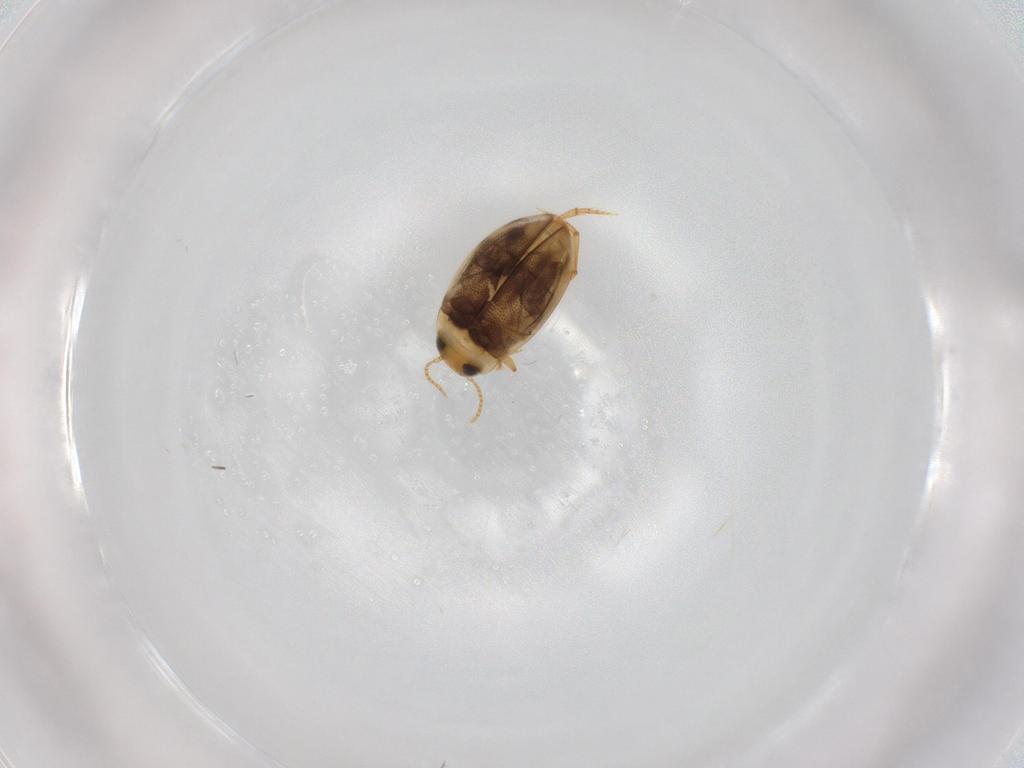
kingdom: Animalia
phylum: Arthropoda
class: Insecta
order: Coleoptera
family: Dytiscidae
